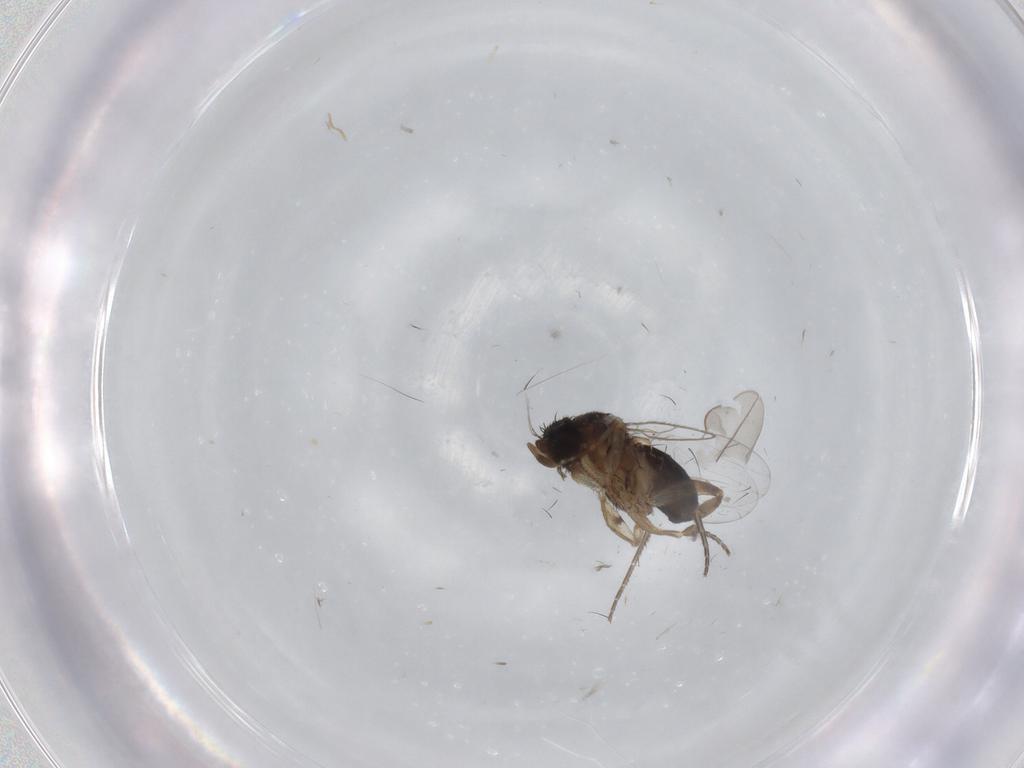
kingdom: Animalia
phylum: Arthropoda
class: Insecta
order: Diptera
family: Phoridae
